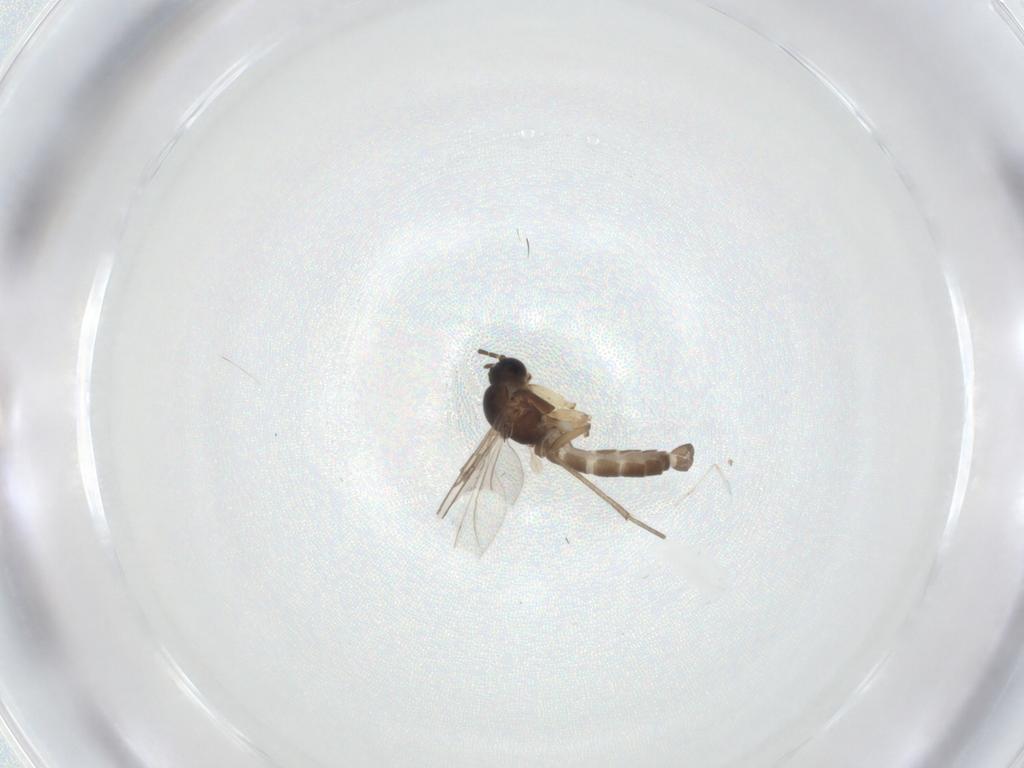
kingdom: Animalia
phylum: Arthropoda
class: Insecta
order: Diptera
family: Sciaridae
